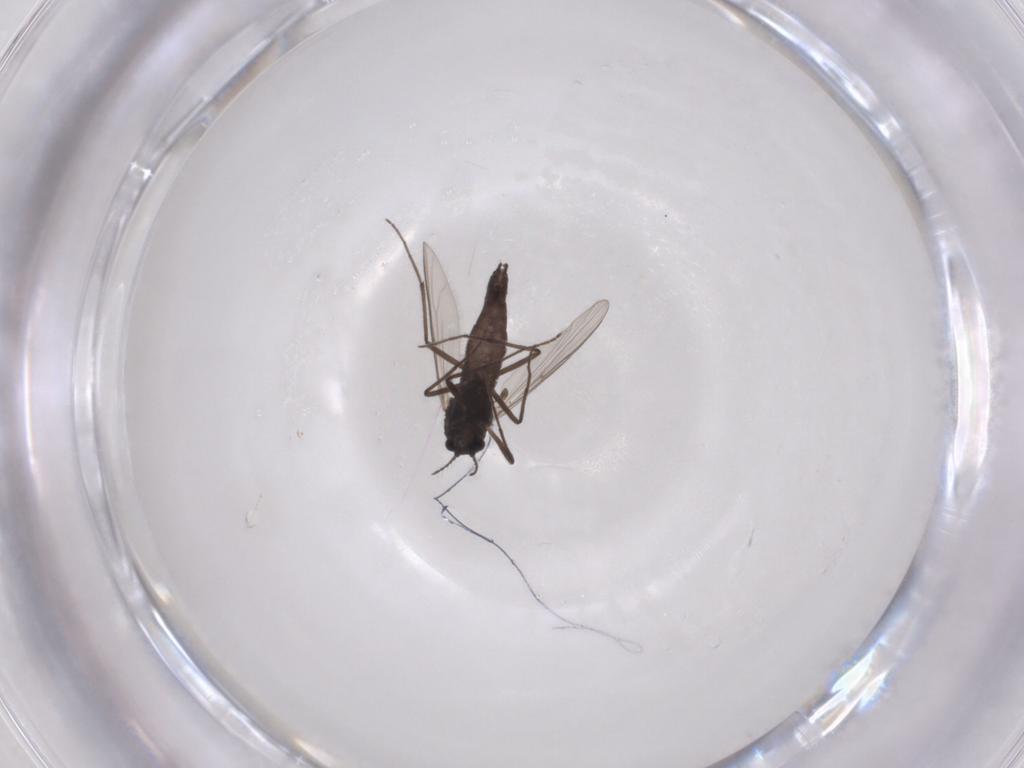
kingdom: Animalia
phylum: Arthropoda
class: Insecta
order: Diptera
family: Chironomidae
